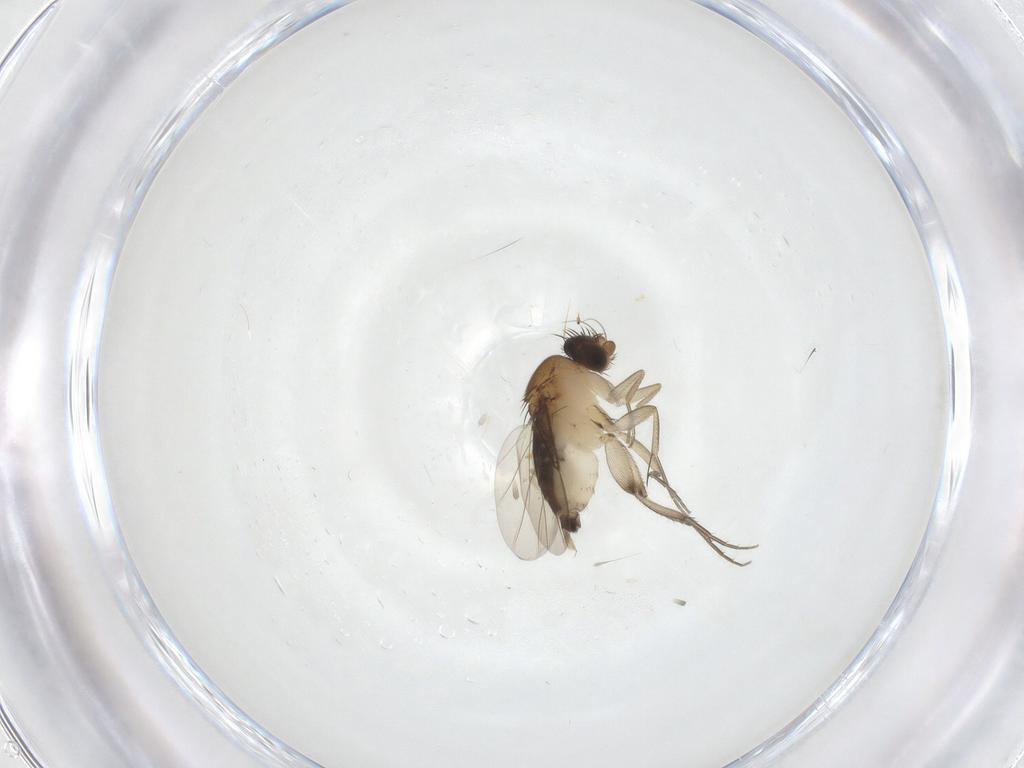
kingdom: Animalia
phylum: Arthropoda
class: Insecta
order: Diptera
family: Phoridae
